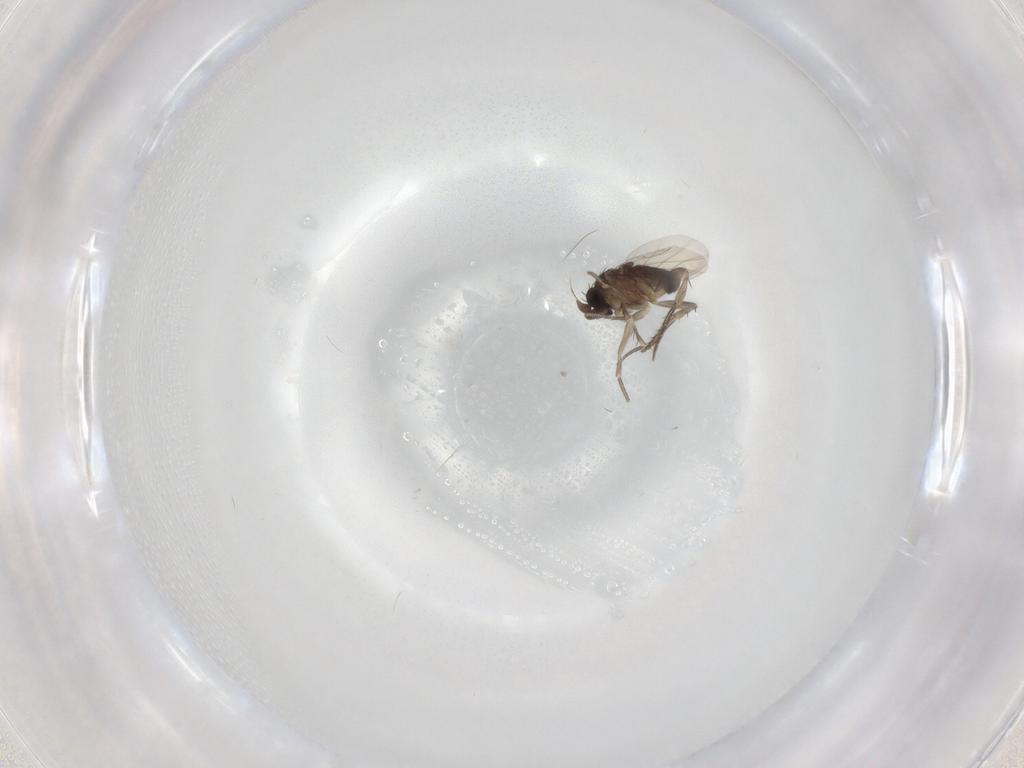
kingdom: Animalia
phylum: Arthropoda
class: Insecta
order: Diptera
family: Phoridae
